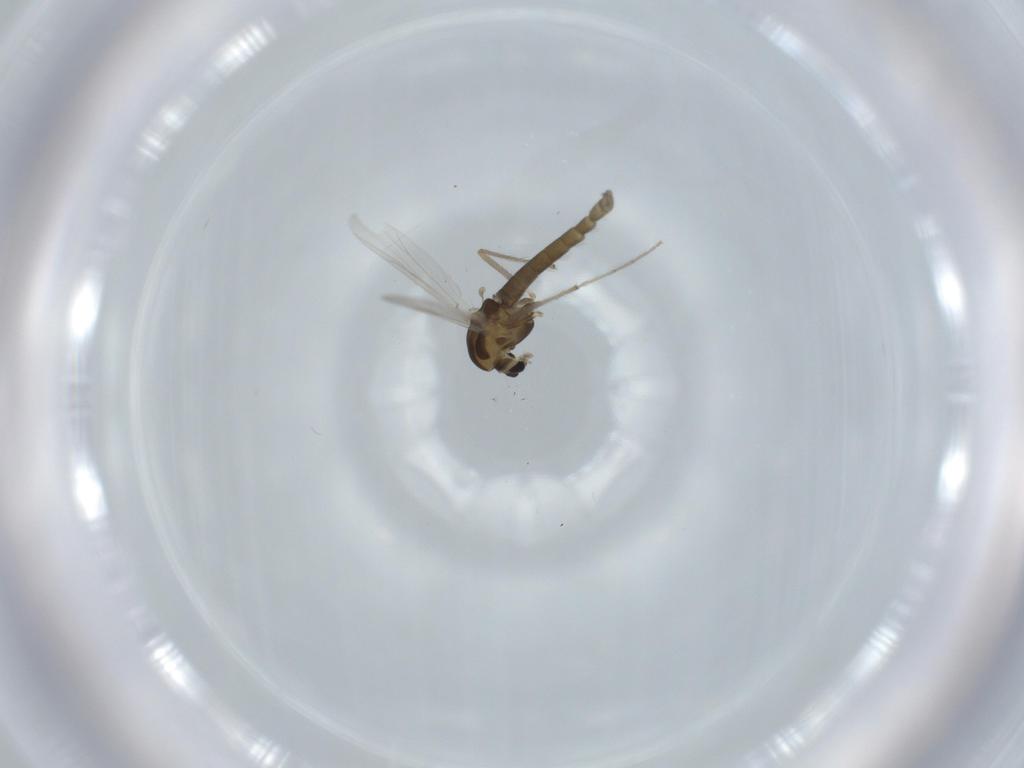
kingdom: Animalia
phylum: Arthropoda
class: Insecta
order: Diptera
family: Chironomidae
